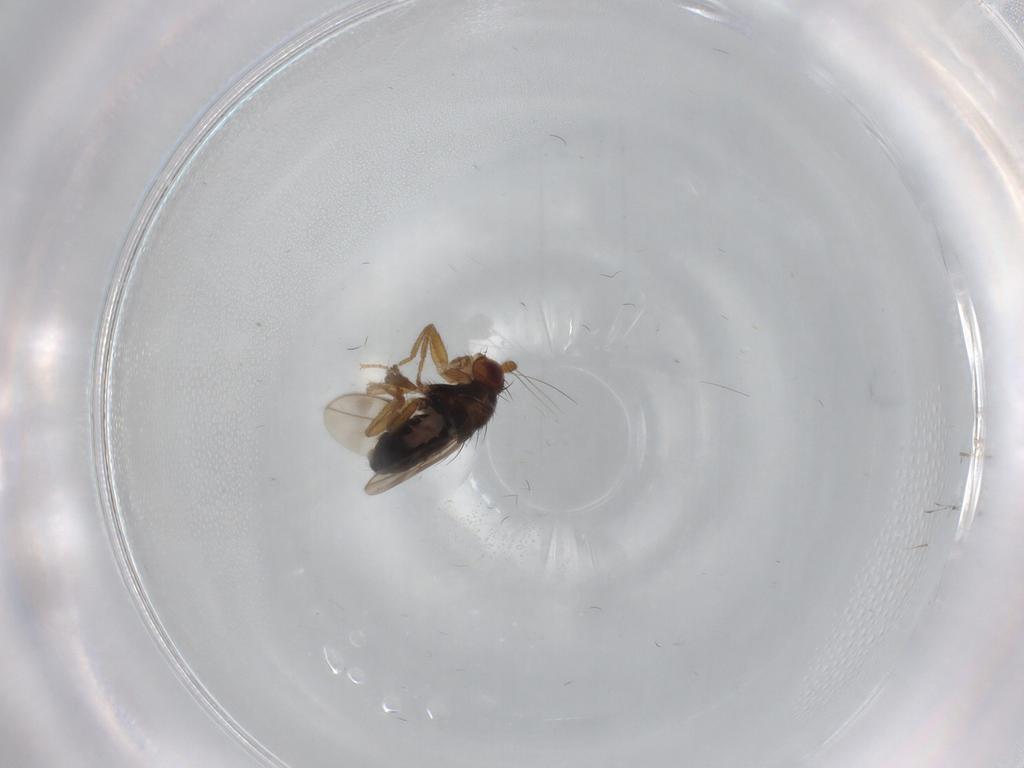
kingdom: Animalia
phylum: Arthropoda
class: Insecta
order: Diptera
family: Sphaeroceridae
